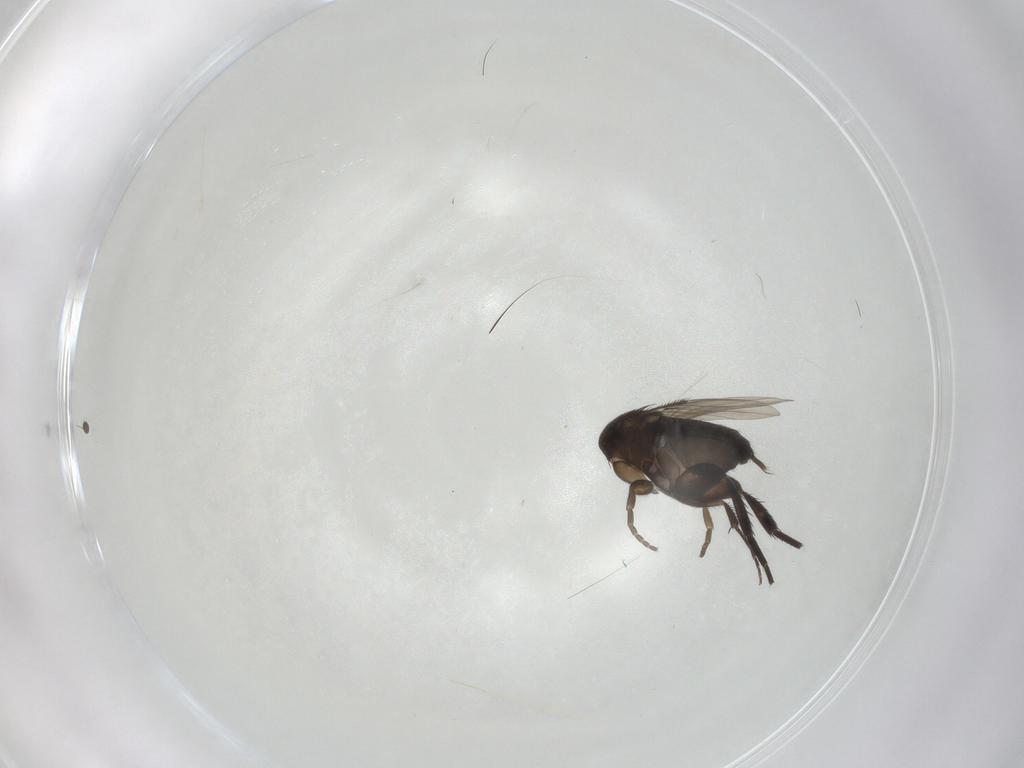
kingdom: Animalia
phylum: Arthropoda
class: Insecta
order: Diptera
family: Phoridae
